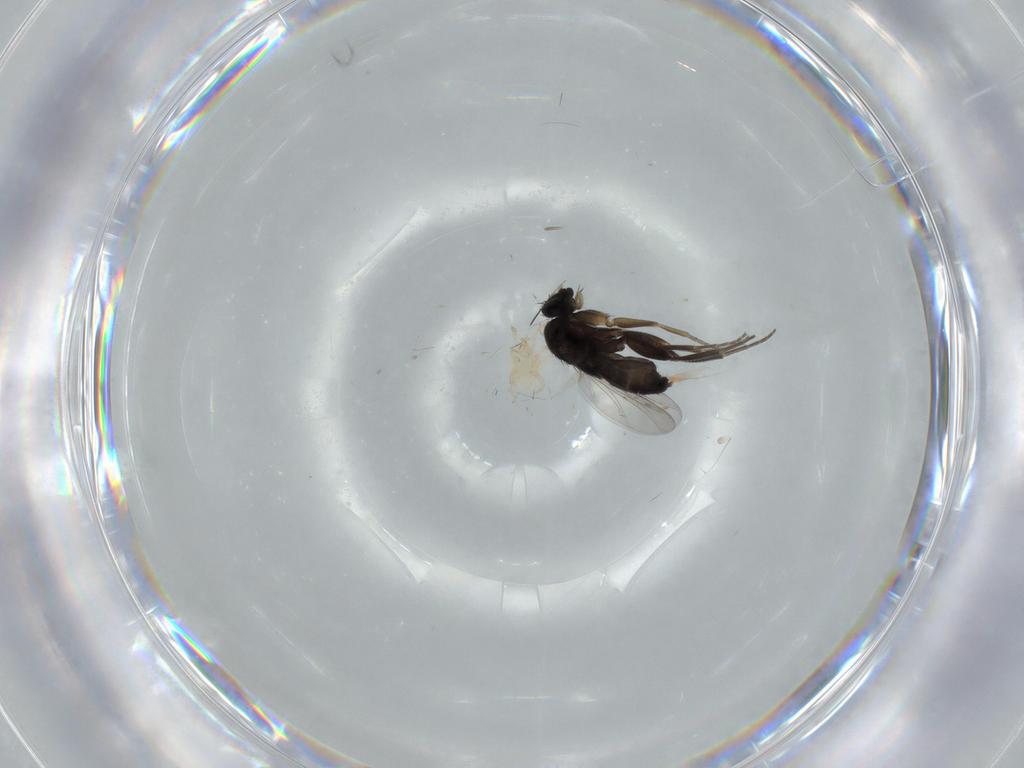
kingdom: Animalia
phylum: Arthropoda
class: Insecta
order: Diptera
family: Phoridae
